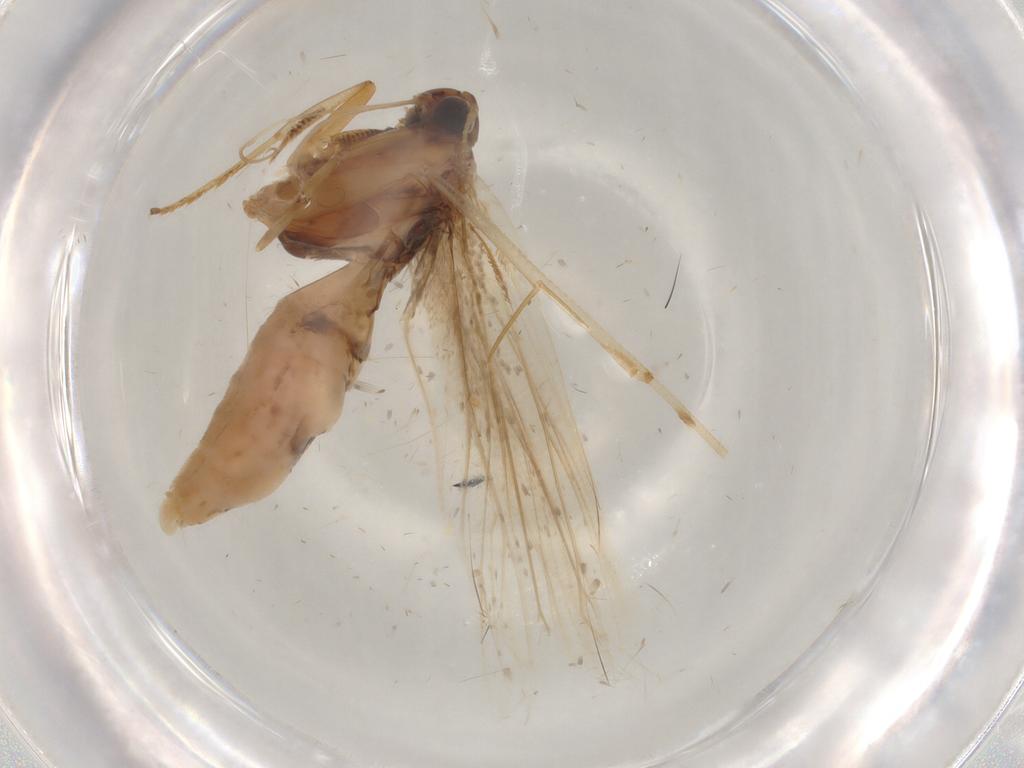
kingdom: Animalia
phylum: Arthropoda
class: Insecta
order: Lepidoptera
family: Gelechiidae
